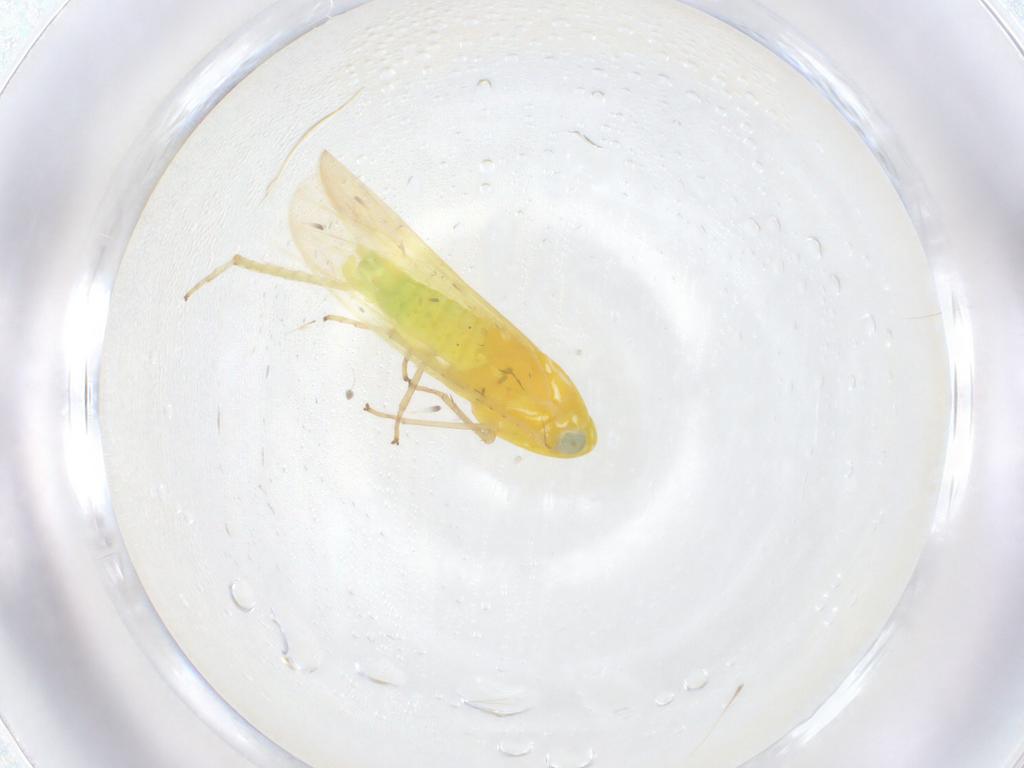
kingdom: Animalia
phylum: Arthropoda
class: Insecta
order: Hemiptera
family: Cicadellidae
